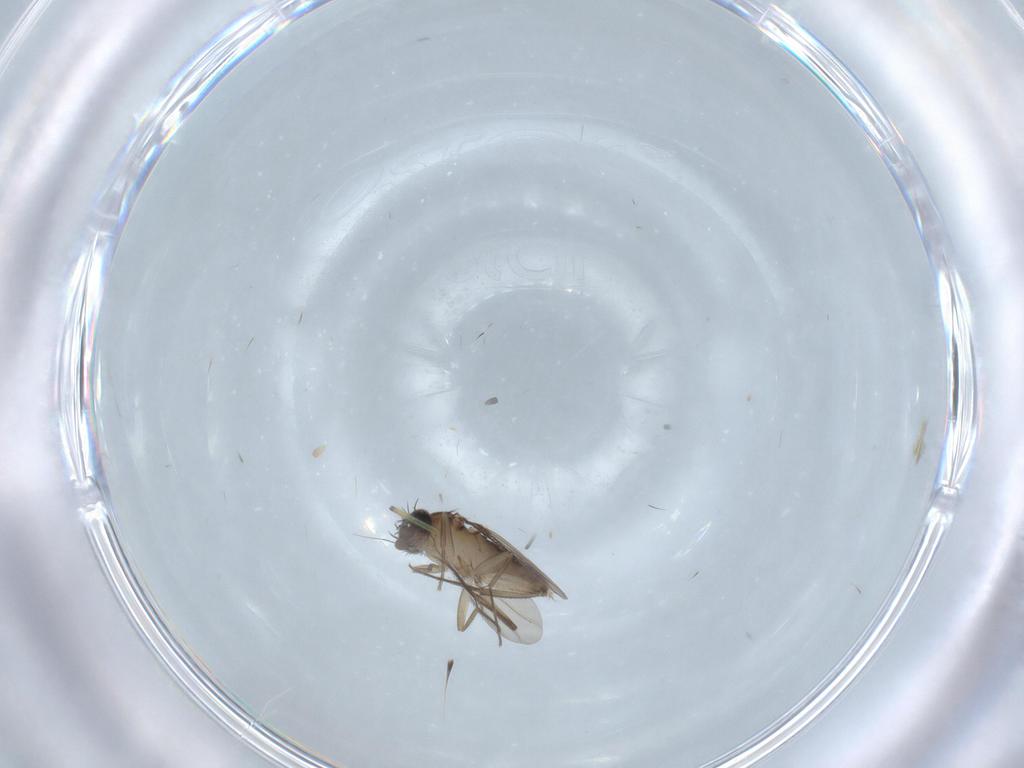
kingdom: Animalia
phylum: Arthropoda
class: Insecta
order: Diptera
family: Phoridae
